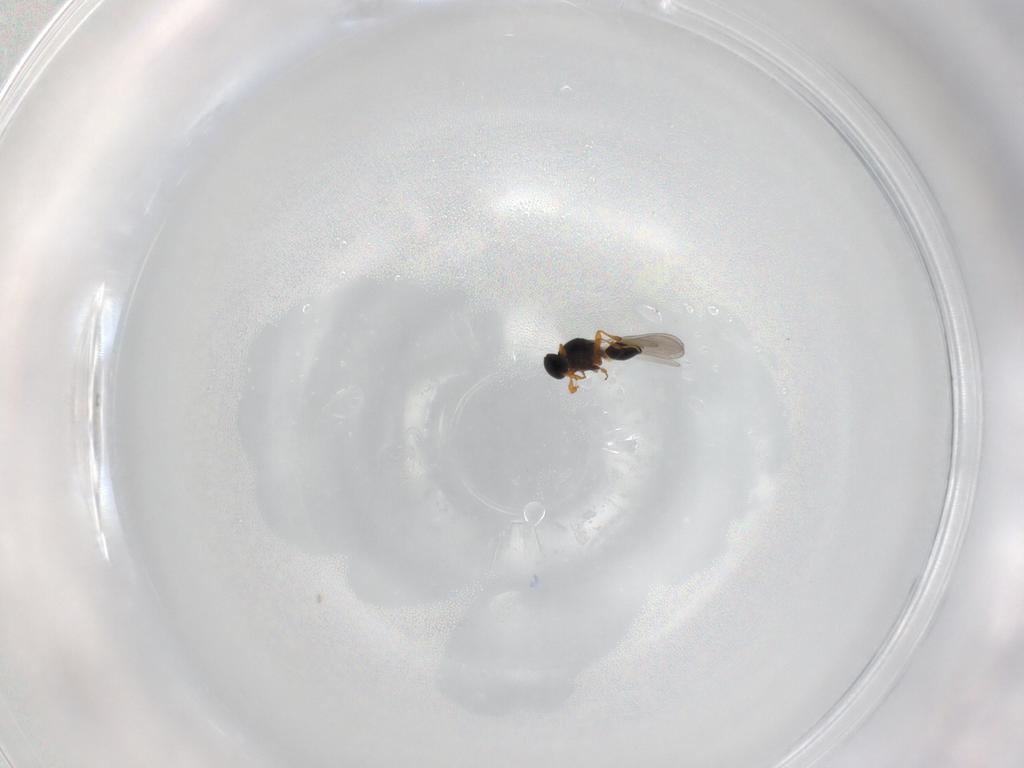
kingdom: Animalia
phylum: Arthropoda
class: Insecta
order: Hymenoptera
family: Platygastridae
